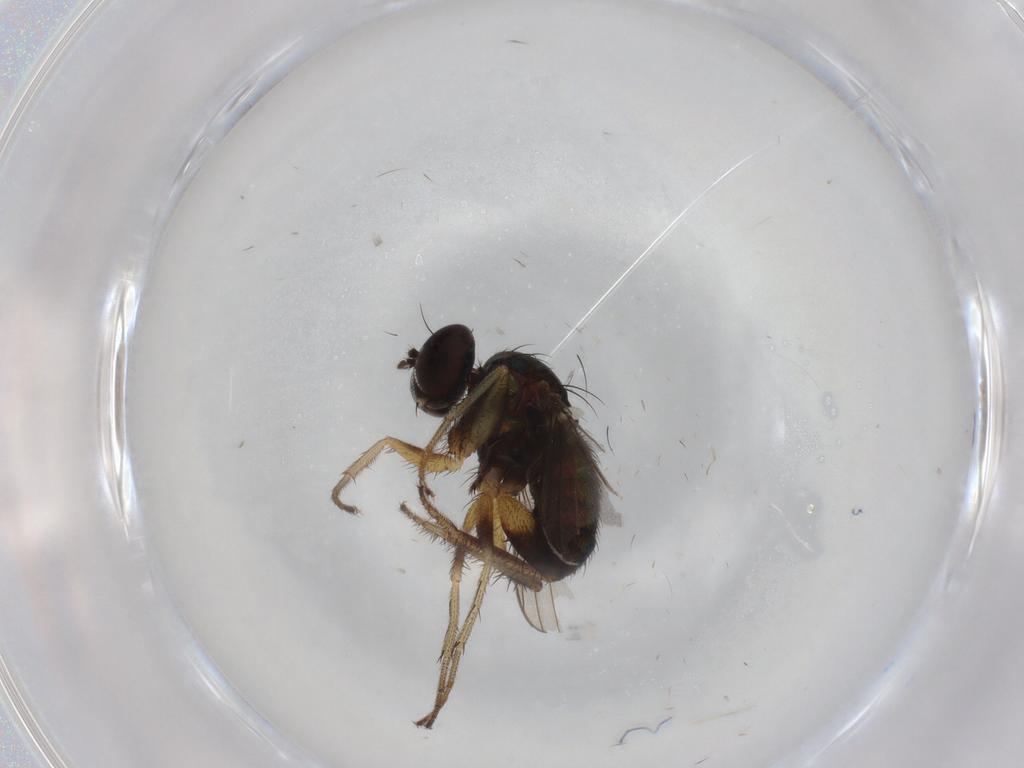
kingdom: Animalia
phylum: Arthropoda
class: Insecta
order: Diptera
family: Dolichopodidae
